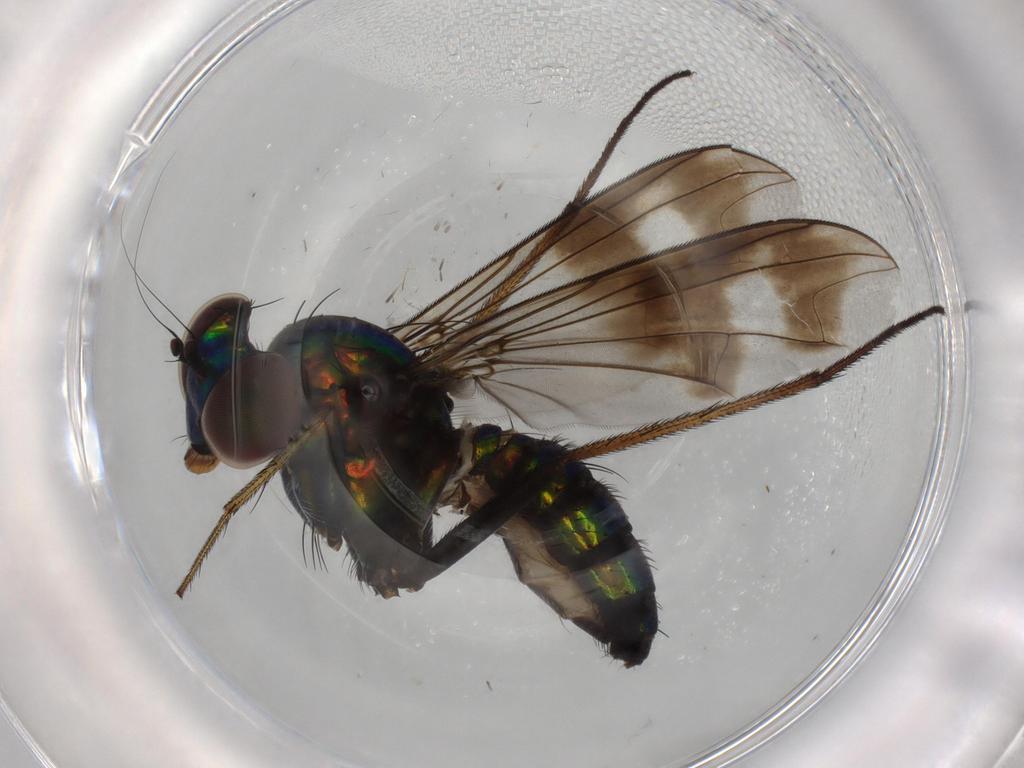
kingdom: Animalia
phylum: Arthropoda
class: Insecta
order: Diptera
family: Dolichopodidae
